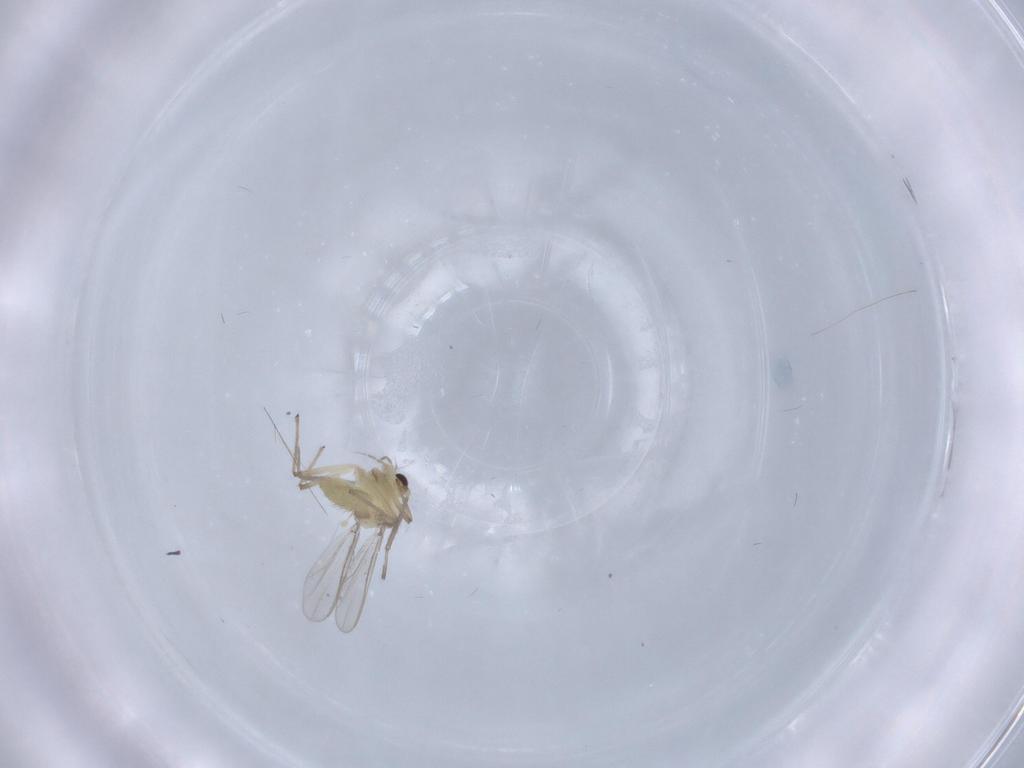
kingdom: Animalia
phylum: Arthropoda
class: Insecta
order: Diptera
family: Chironomidae
